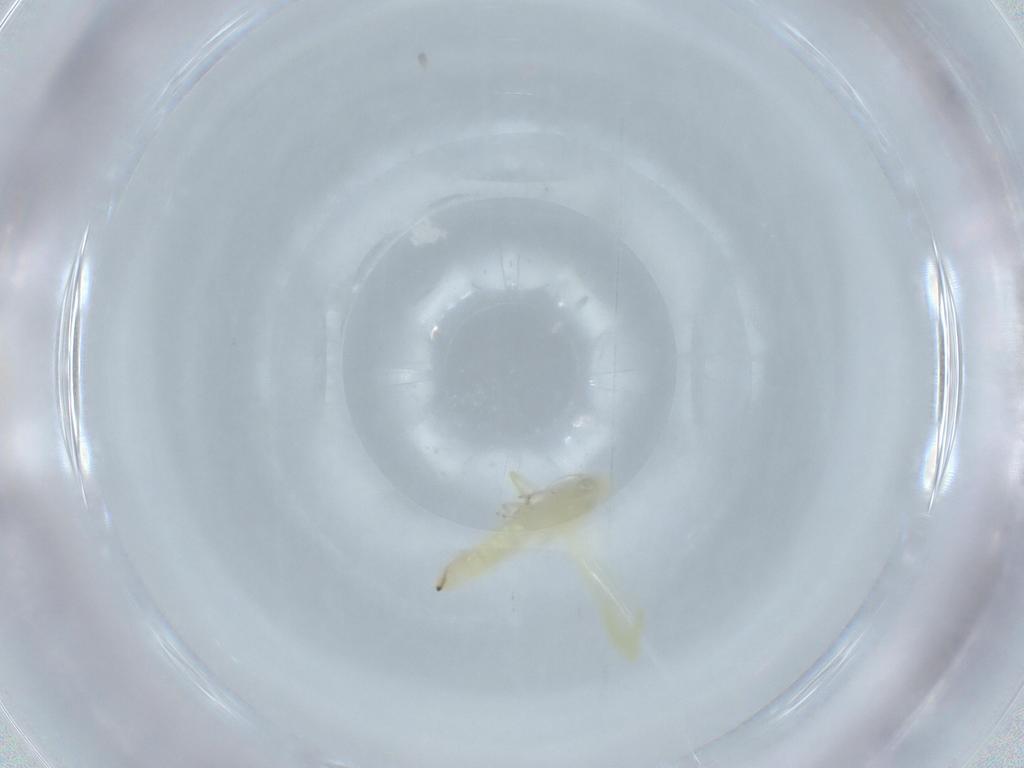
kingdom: Animalia
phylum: Arthropoda
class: Insecta
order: Hemiptera
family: Cicadellidae
